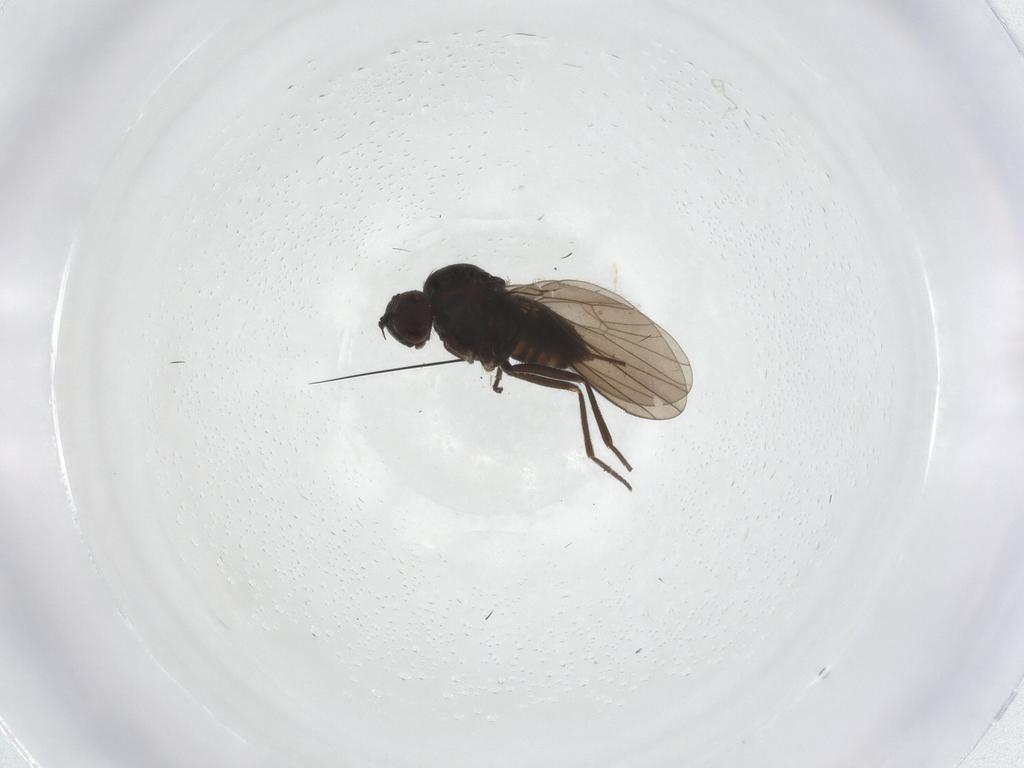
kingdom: Animalia
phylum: Arthropoda
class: Insecta
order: Diptera
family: Dolichopodidae
